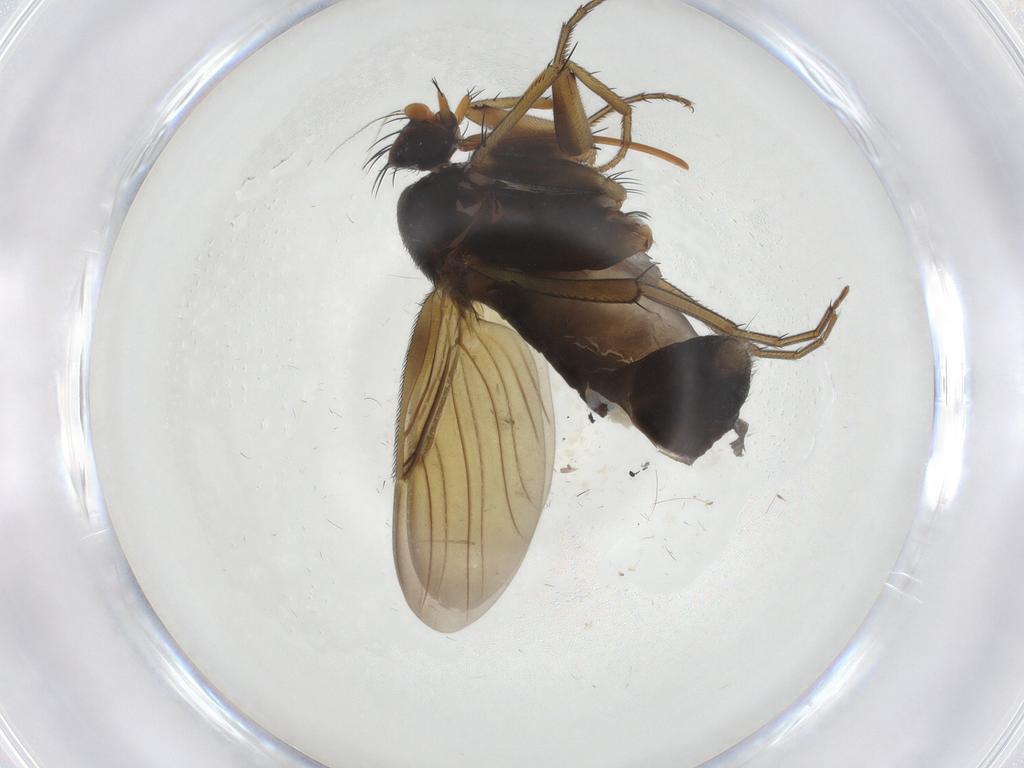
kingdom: Animalia
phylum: Arthropoda
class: Insecta
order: Diptera
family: Phoridae
